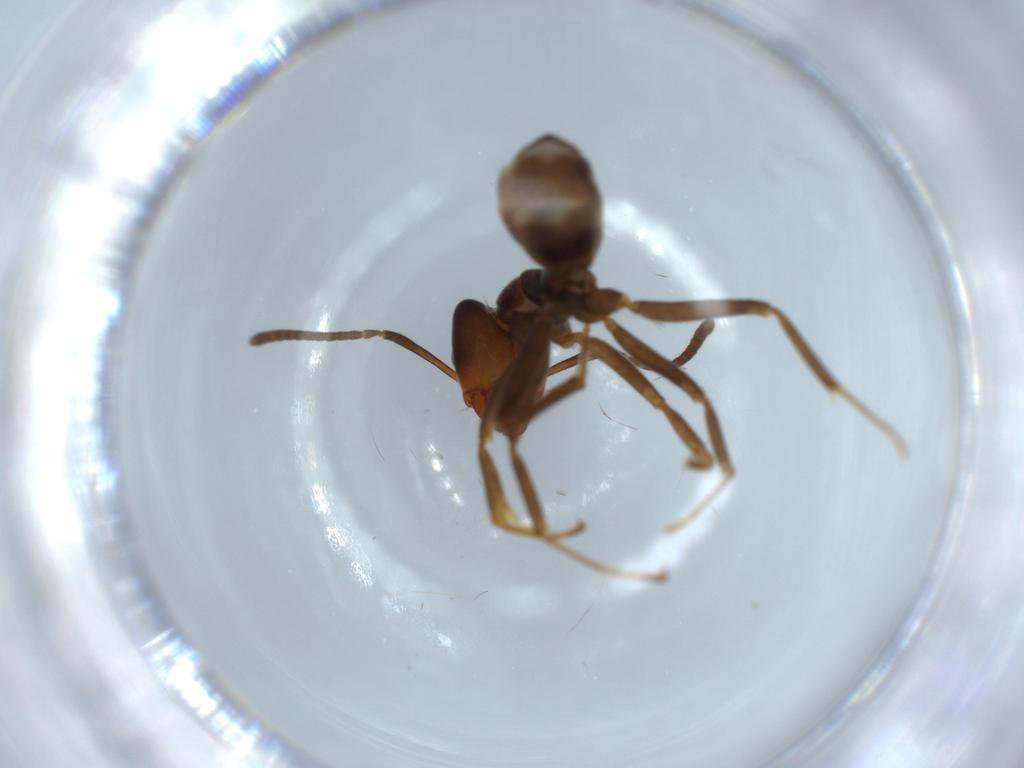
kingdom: Animalia
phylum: Arthropoda
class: Insecta
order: Hymenoptera
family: Formicidae
